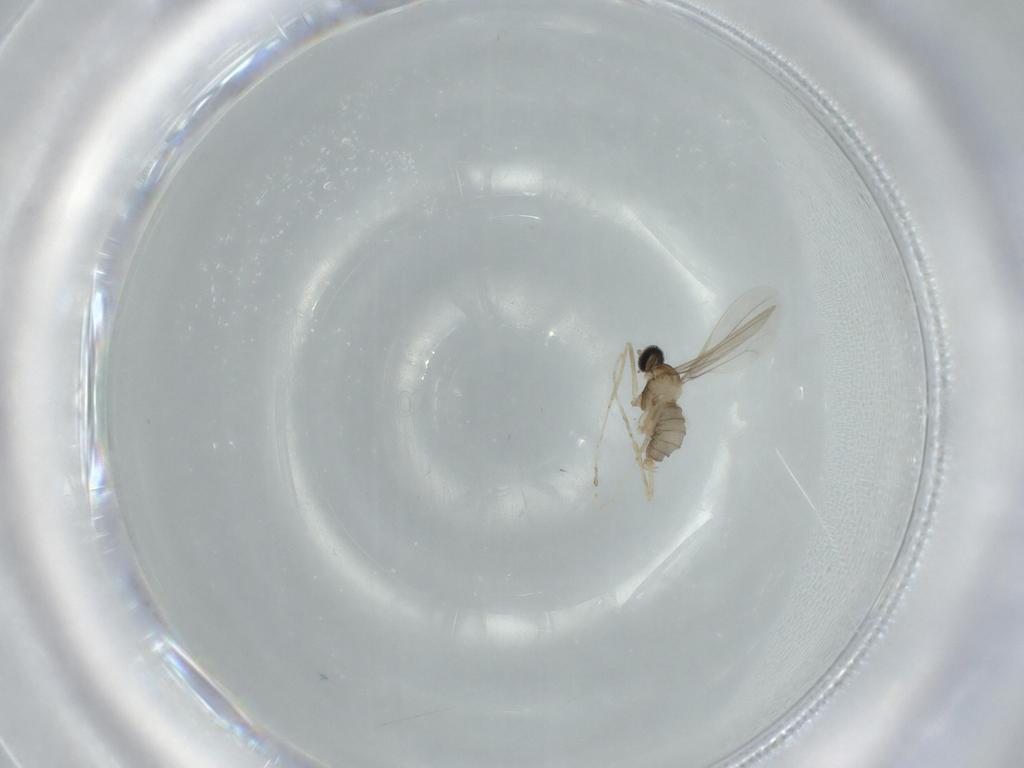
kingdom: Animalia
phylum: Arthropoda
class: Insecta
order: Diptera
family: Cecidomyiidae
